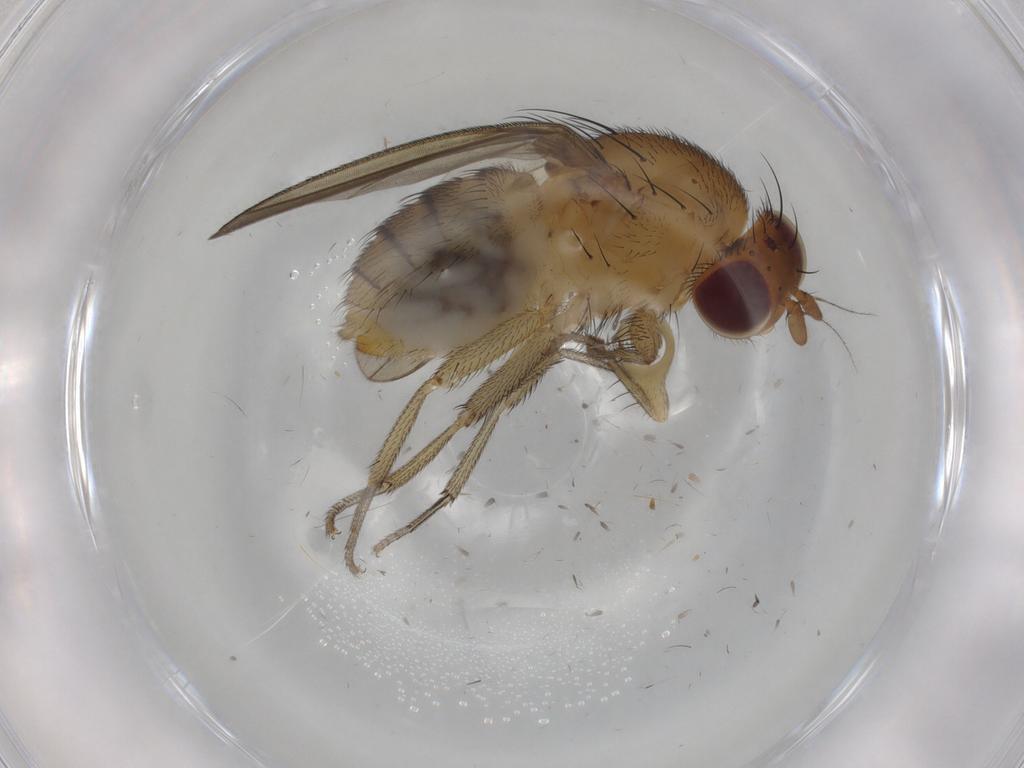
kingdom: Animalia
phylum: Arthropoda
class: Insecta
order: Diptera
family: Lauxaniidae
